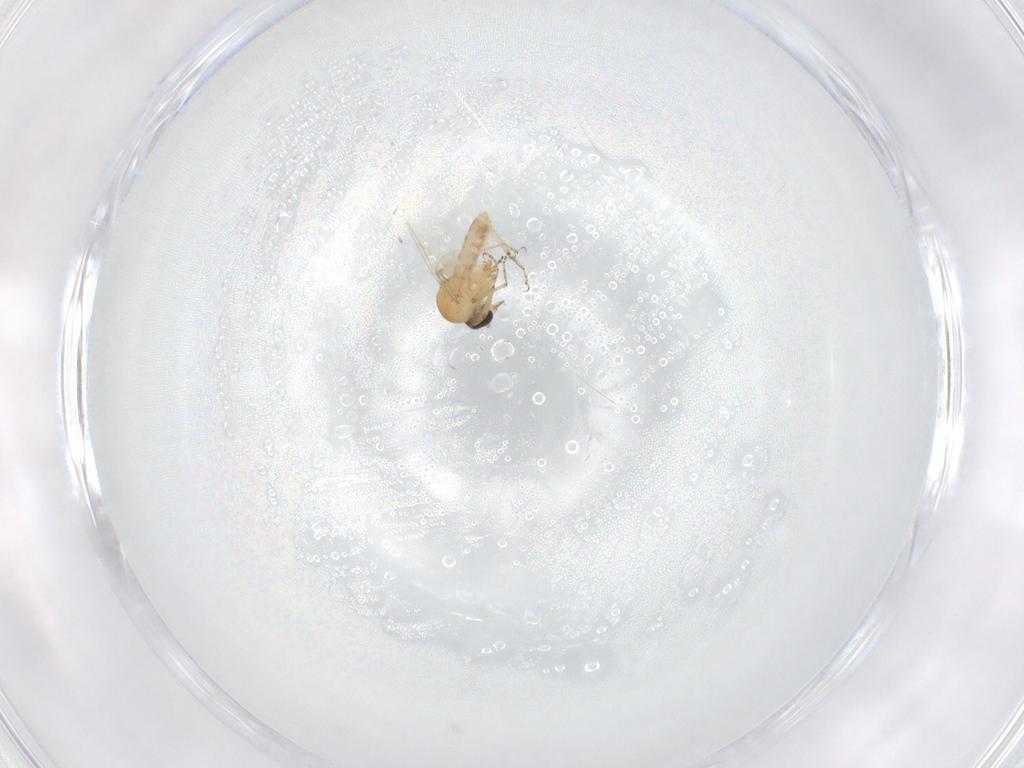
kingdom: Animalia
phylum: Arthropoda
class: Insecta
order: Diptera
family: Ceratopogonidae
